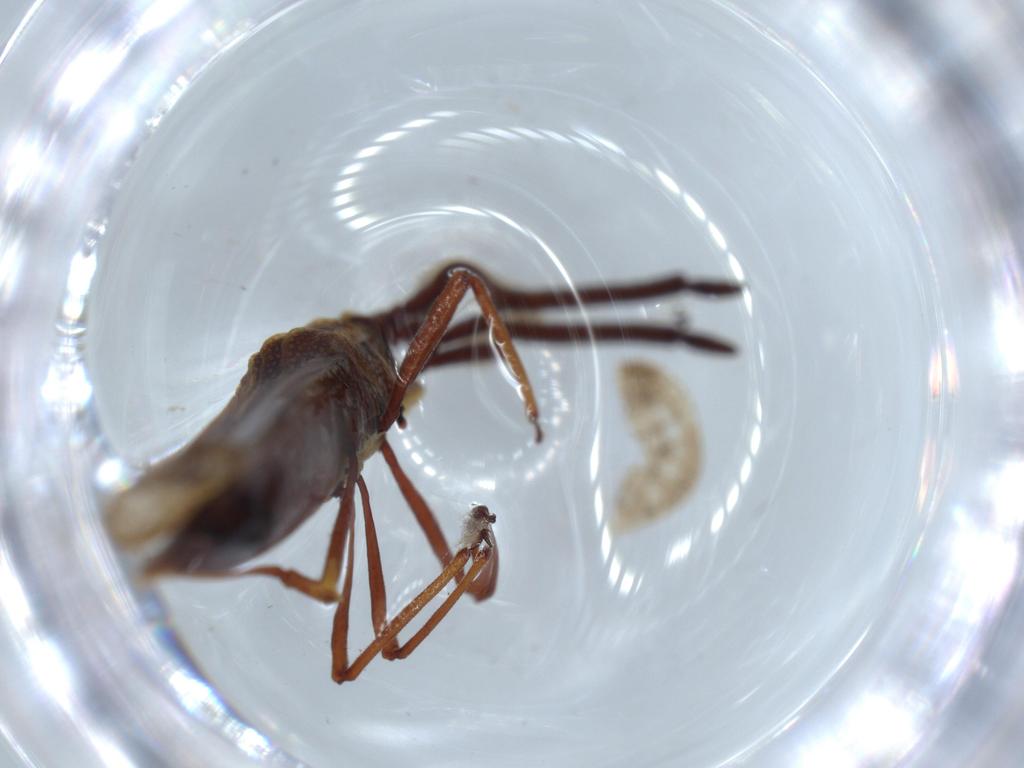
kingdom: Animalia
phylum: Arthropoda
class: Insecta
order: Hemiptera
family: Tingidae
